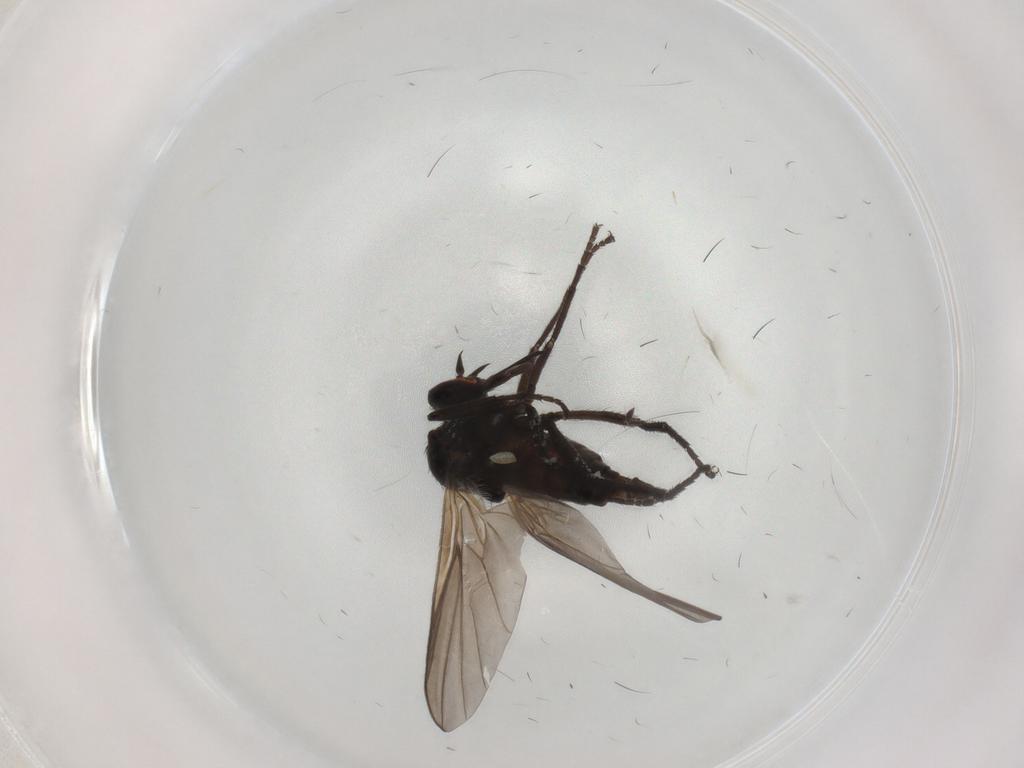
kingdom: Animalia
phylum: Arthropoda
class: Insecta
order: Diptera
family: Empididae
